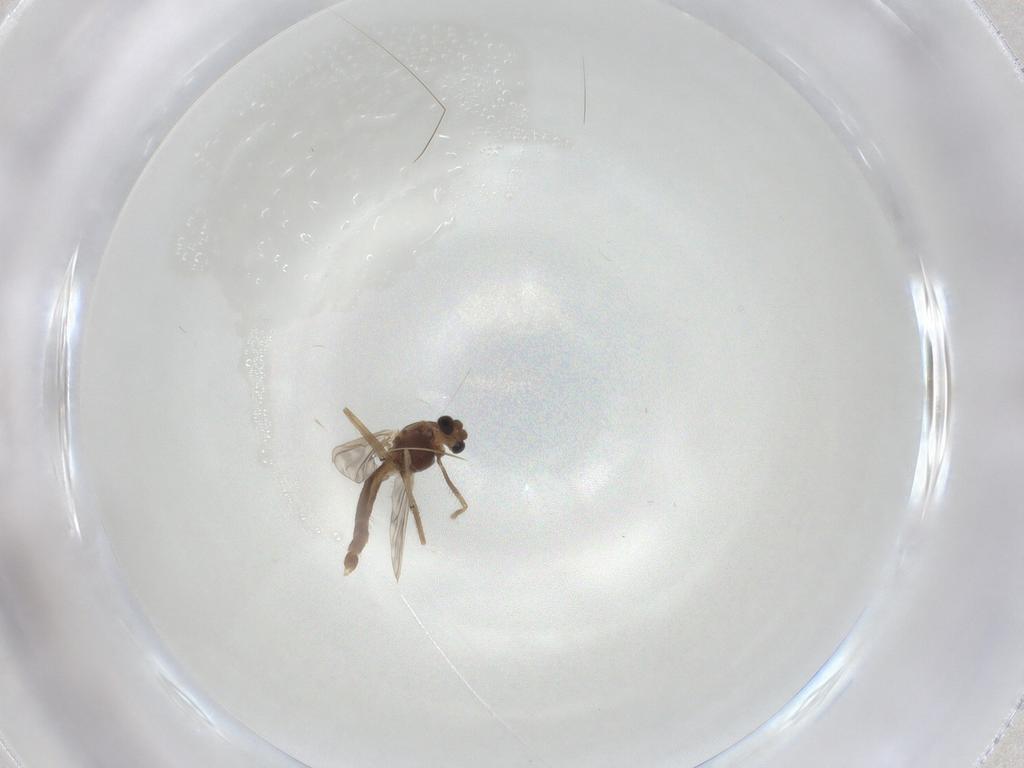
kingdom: Animalia
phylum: Arthropoda
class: Insecta
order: Diptera
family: Chironomidae
